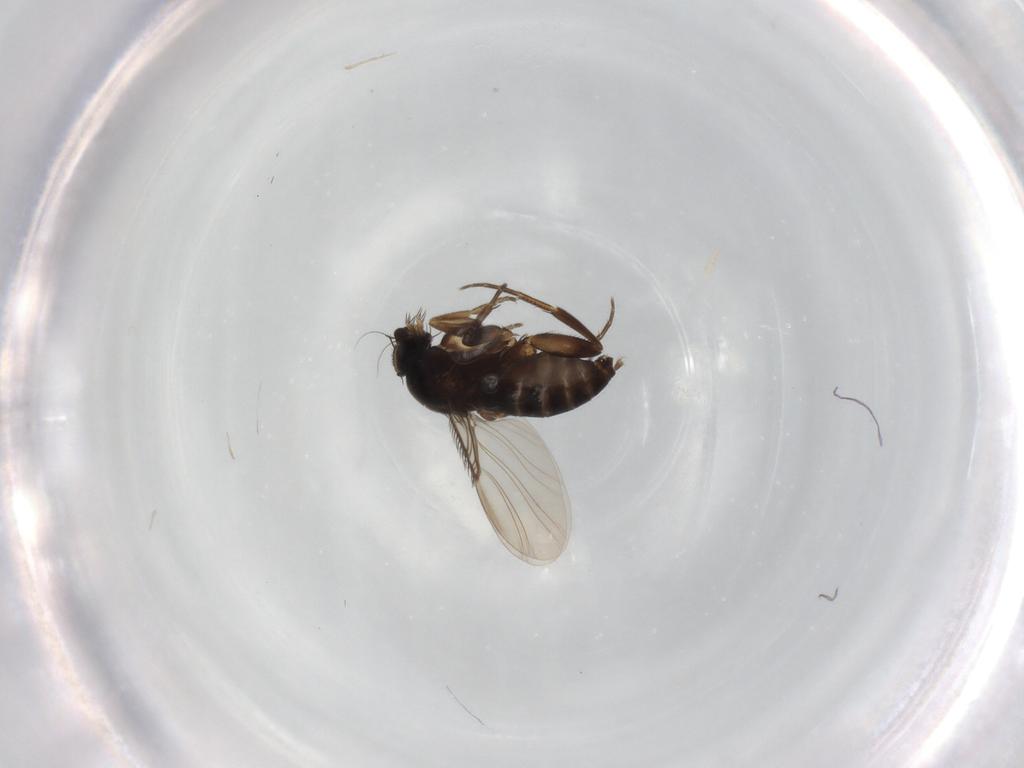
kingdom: Animalia
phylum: Arthropoda
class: Insecta
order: Diptera
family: Phoridae
